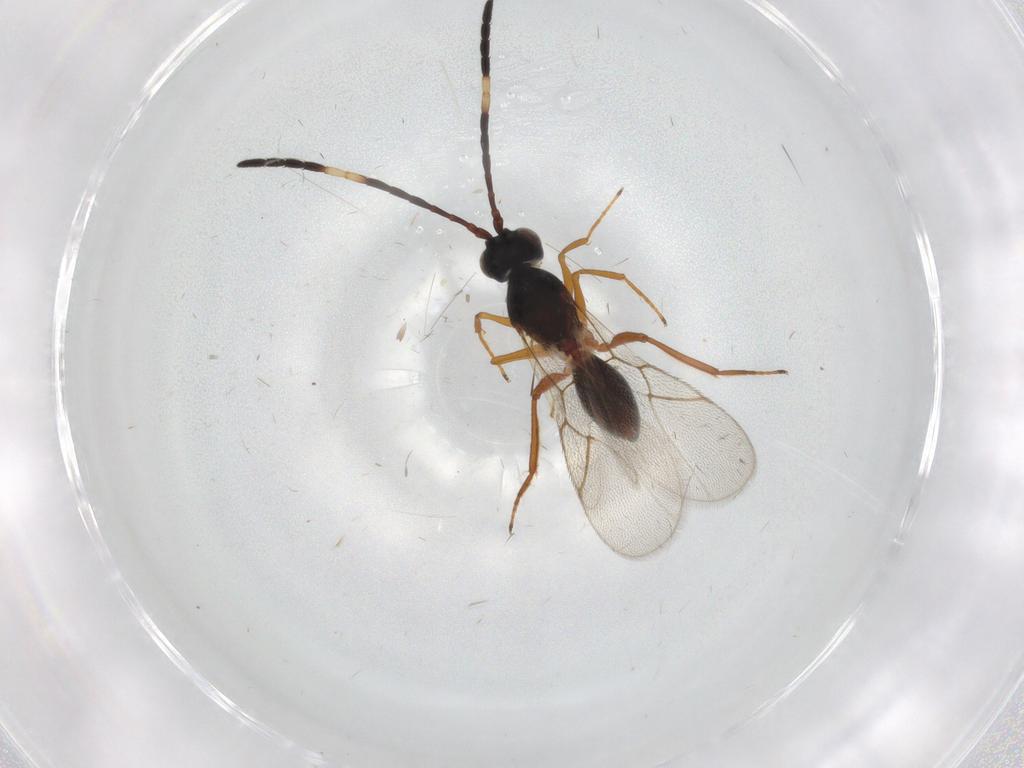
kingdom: Animalia
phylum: Arthropoda
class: Insecta
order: Hymenoptera
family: Figitidae
